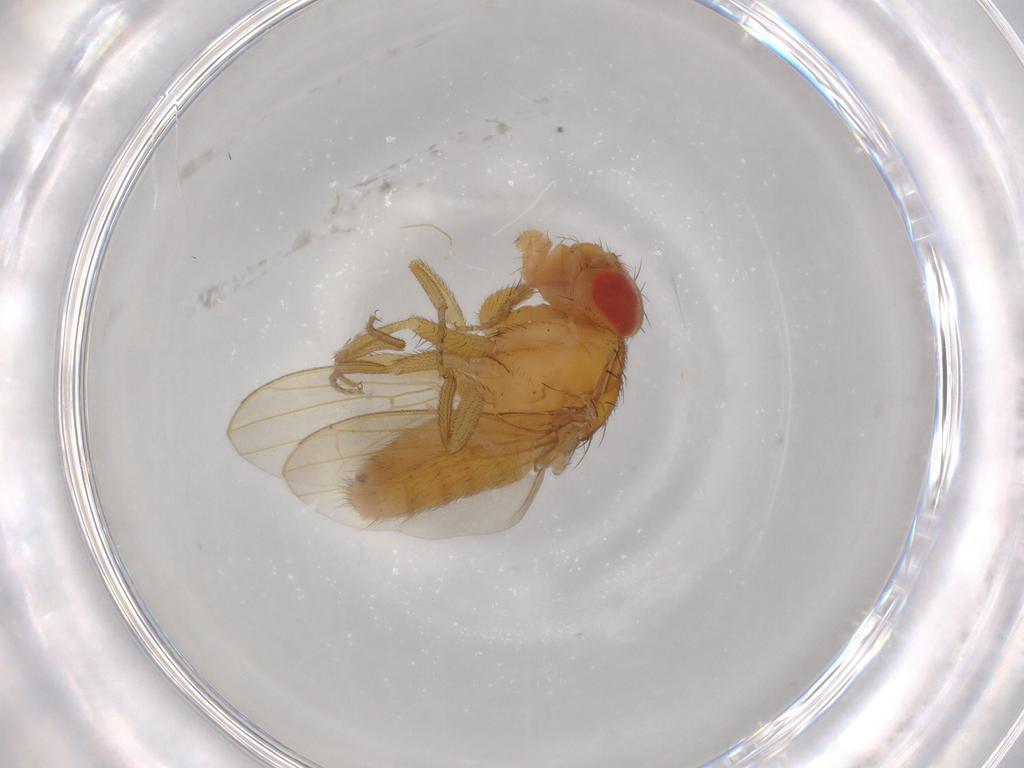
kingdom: Animalia
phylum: Arthropoda
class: Insecta
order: Diptera
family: Drosophilidae
